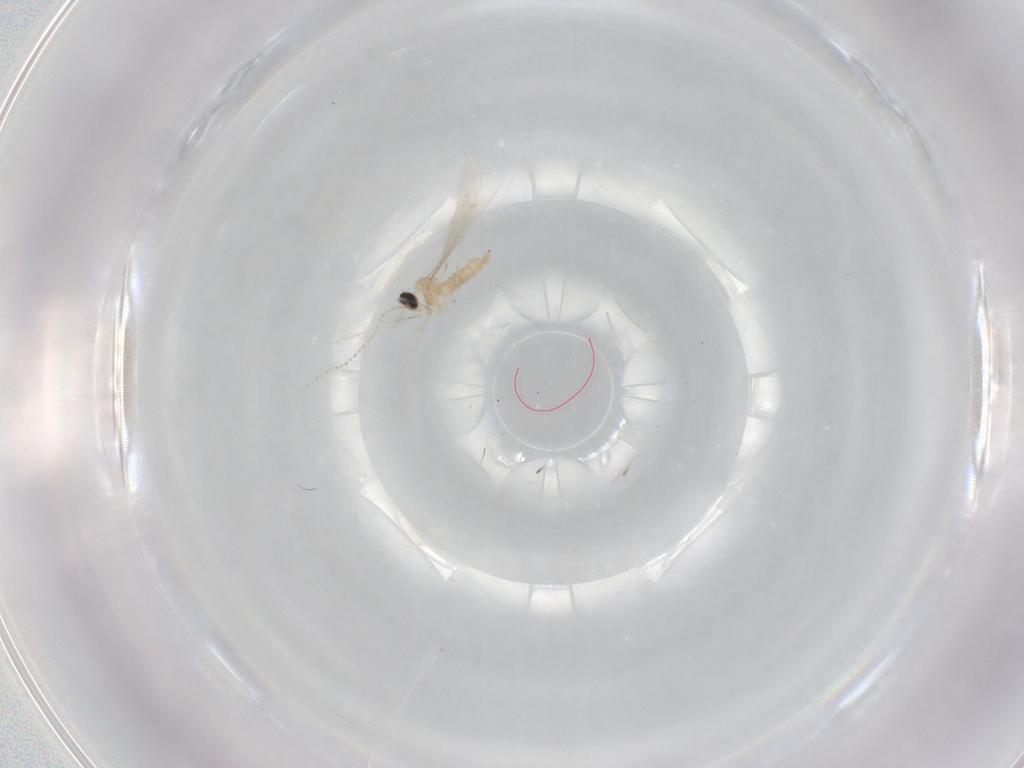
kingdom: Animalia
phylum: Arthropoda
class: Insecta
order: Diptera
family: Cecidomyiidae
